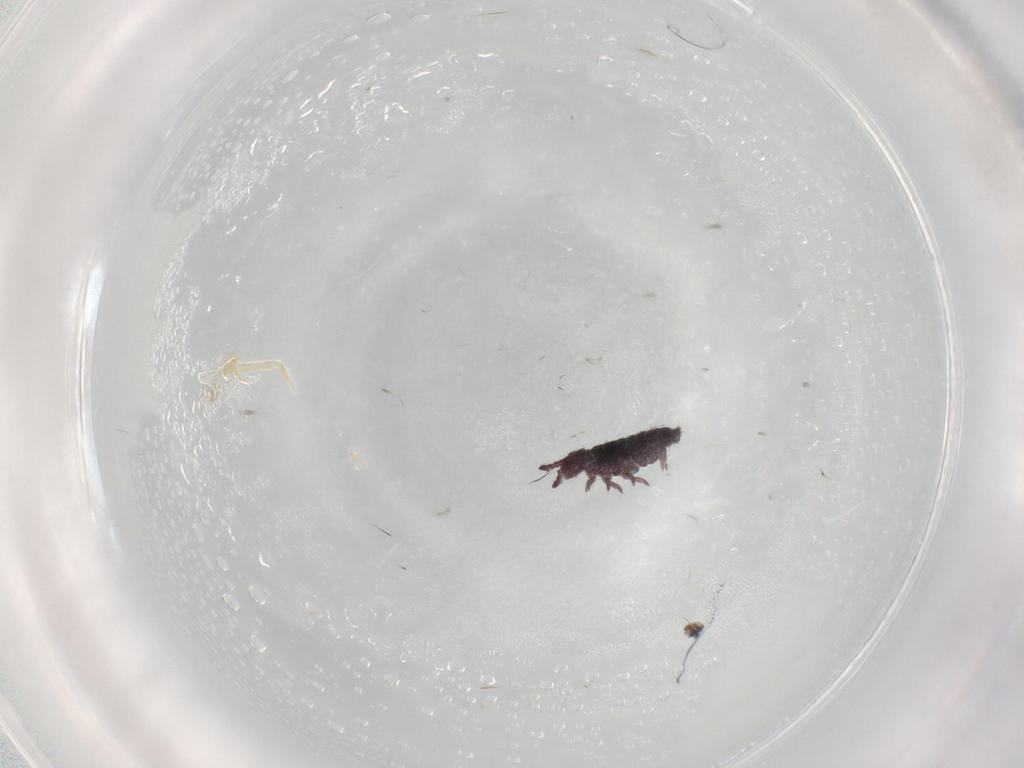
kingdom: Animalia
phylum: Arthropoda
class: Collembola
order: Poduromorpha
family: Hypogastruridae
